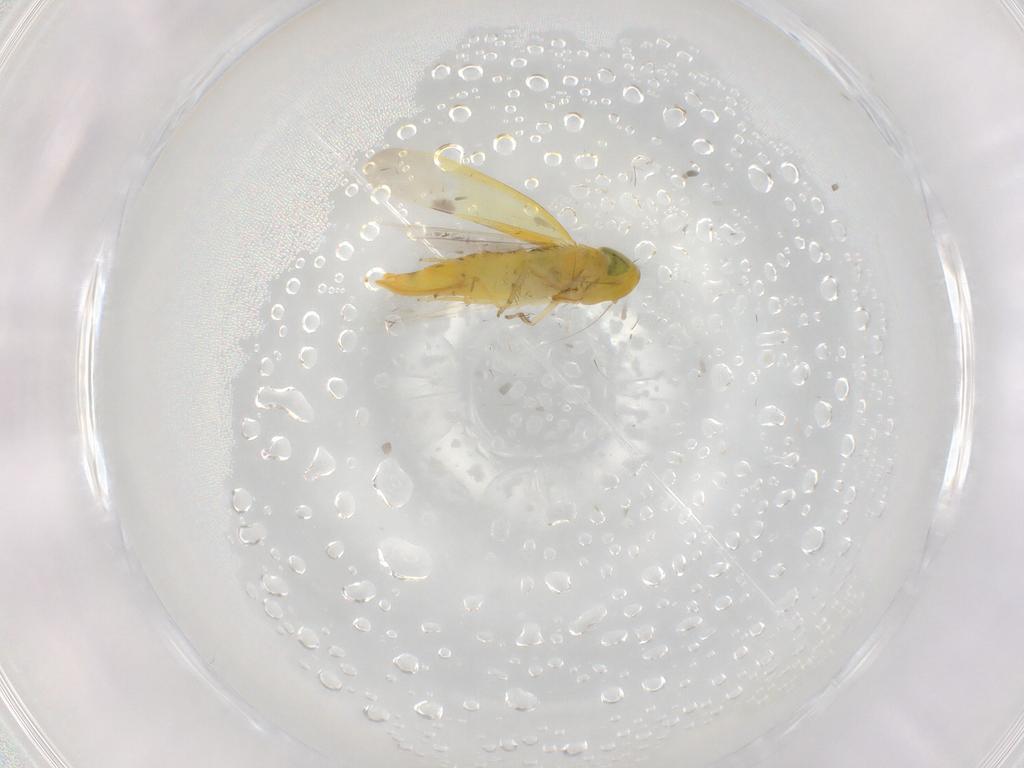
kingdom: Animalia
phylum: Arthropoda
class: Insecta
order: Hemiptera
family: Cicadellidae
